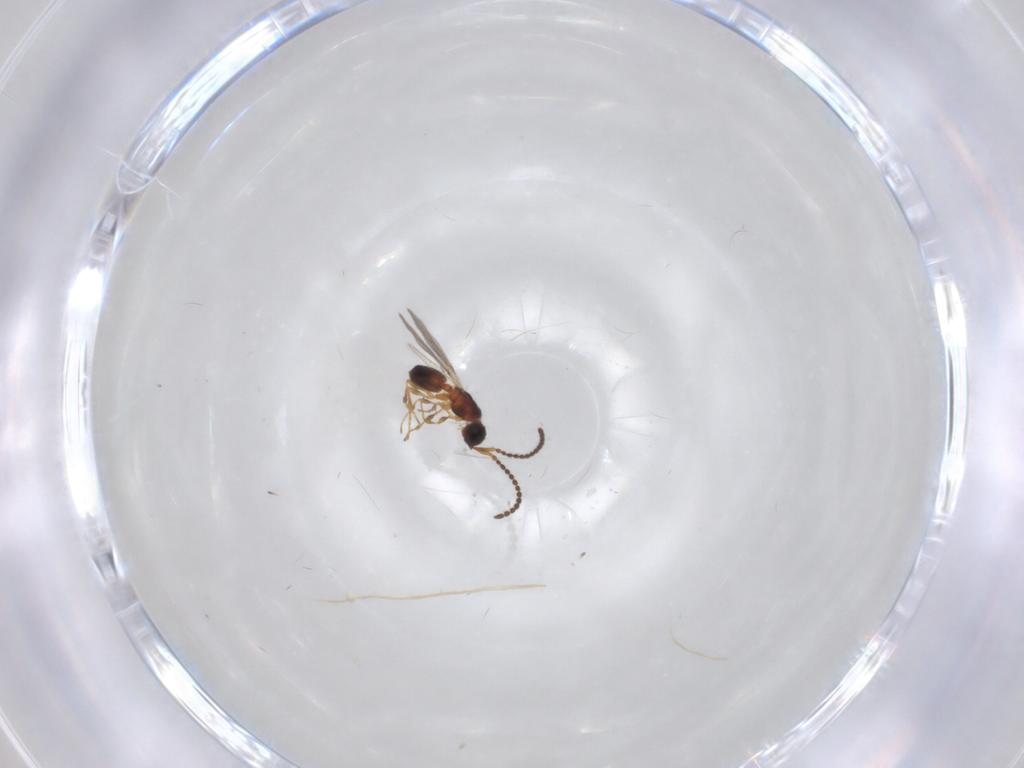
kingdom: Animalia
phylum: Arthropoda
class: Insecta
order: Hymenoptera
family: Diapriidae
